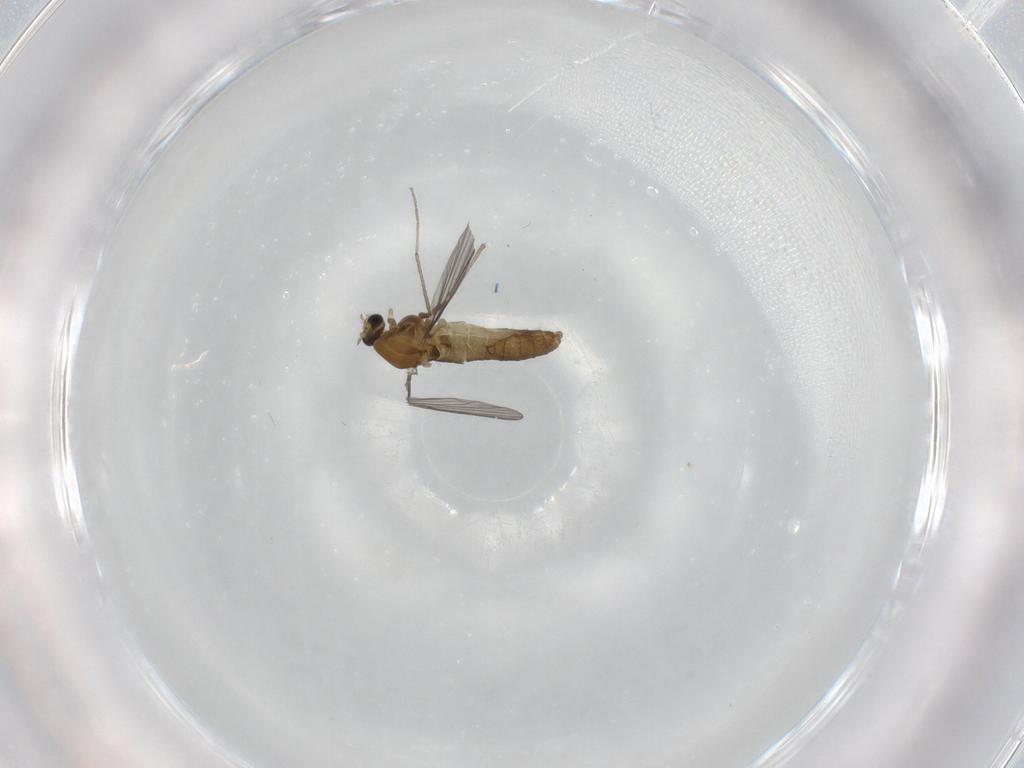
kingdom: Animalia
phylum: Arthropoda
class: Insecta
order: Diptera
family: Chironomidae
